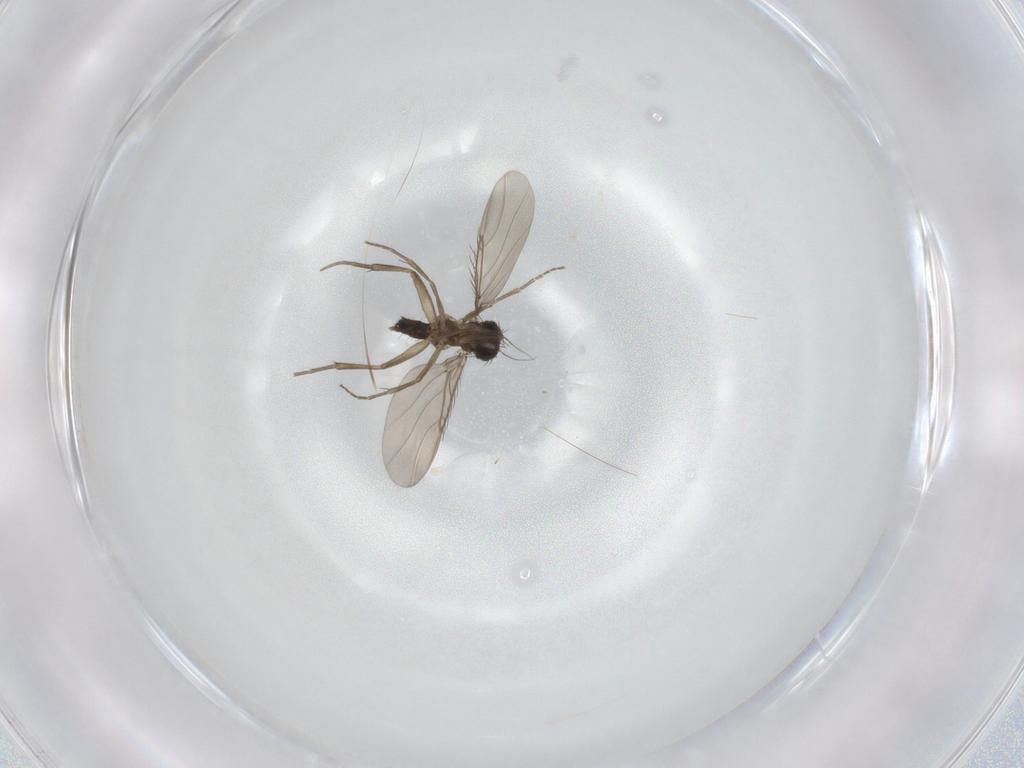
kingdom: Animalia
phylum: Arthropoda
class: Insecta
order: Diptera
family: Phoridae
